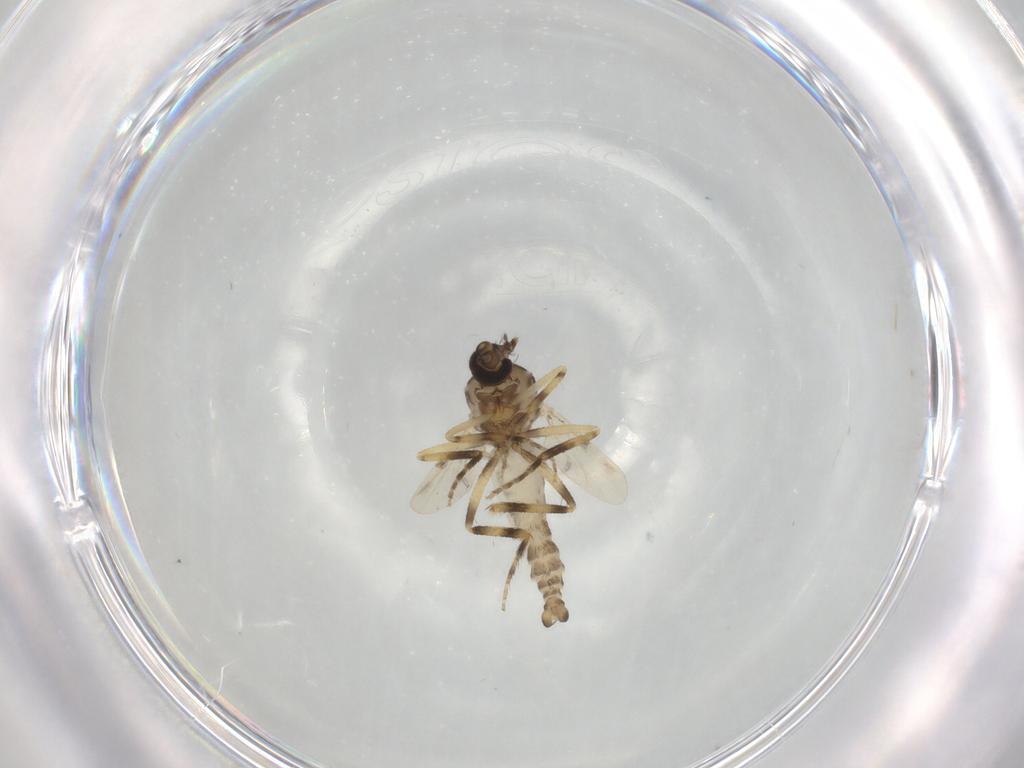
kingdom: Animalia
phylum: Arthropoda
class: Insecta
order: Diptera
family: Ceratopogonidae
